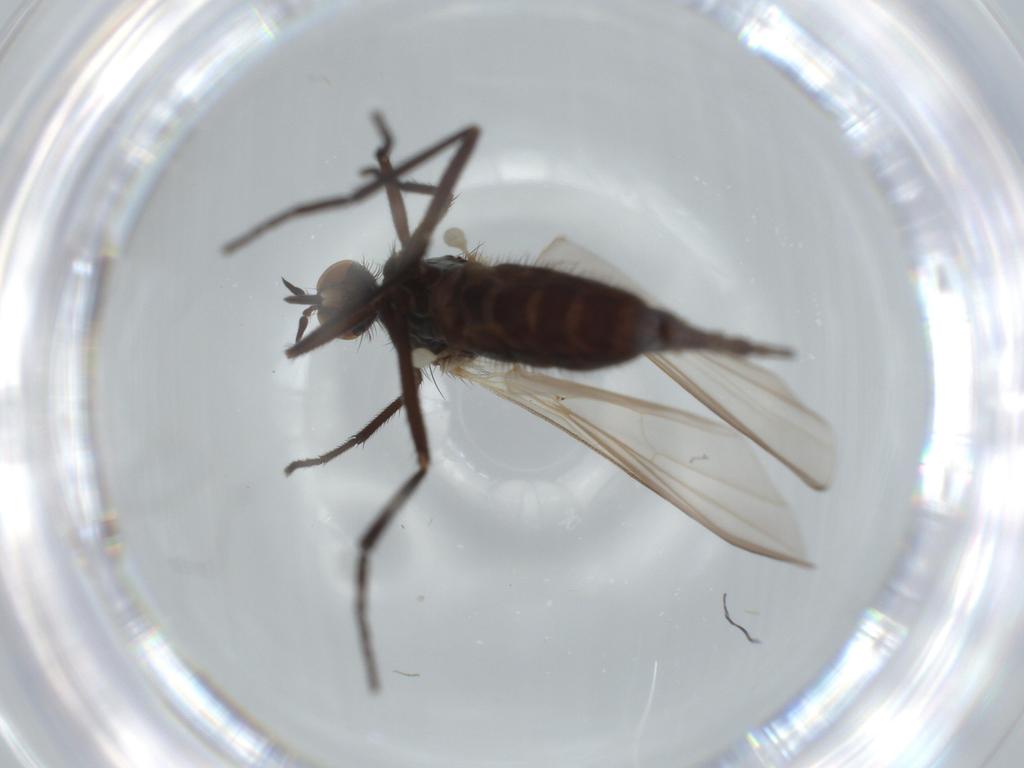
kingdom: Animalia
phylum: Arthropoda
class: Insecta
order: Diptera
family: Empididae
